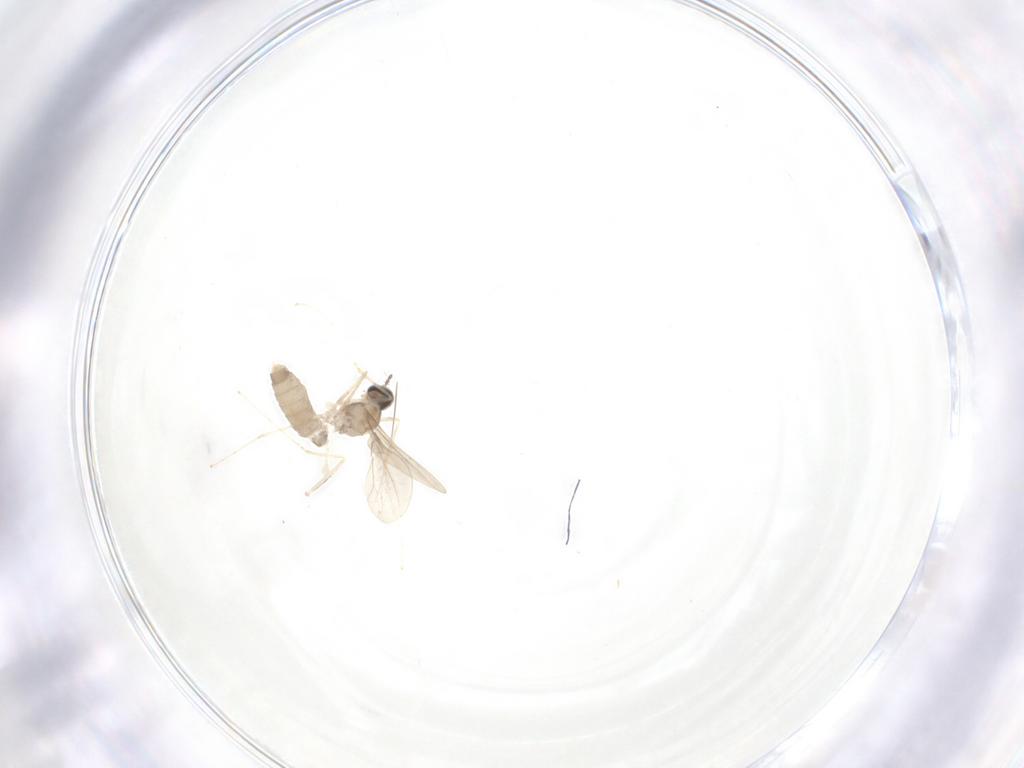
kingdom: Animalia
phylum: Arthropoda
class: Insecta
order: Diptera
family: Cecidomyiidae
